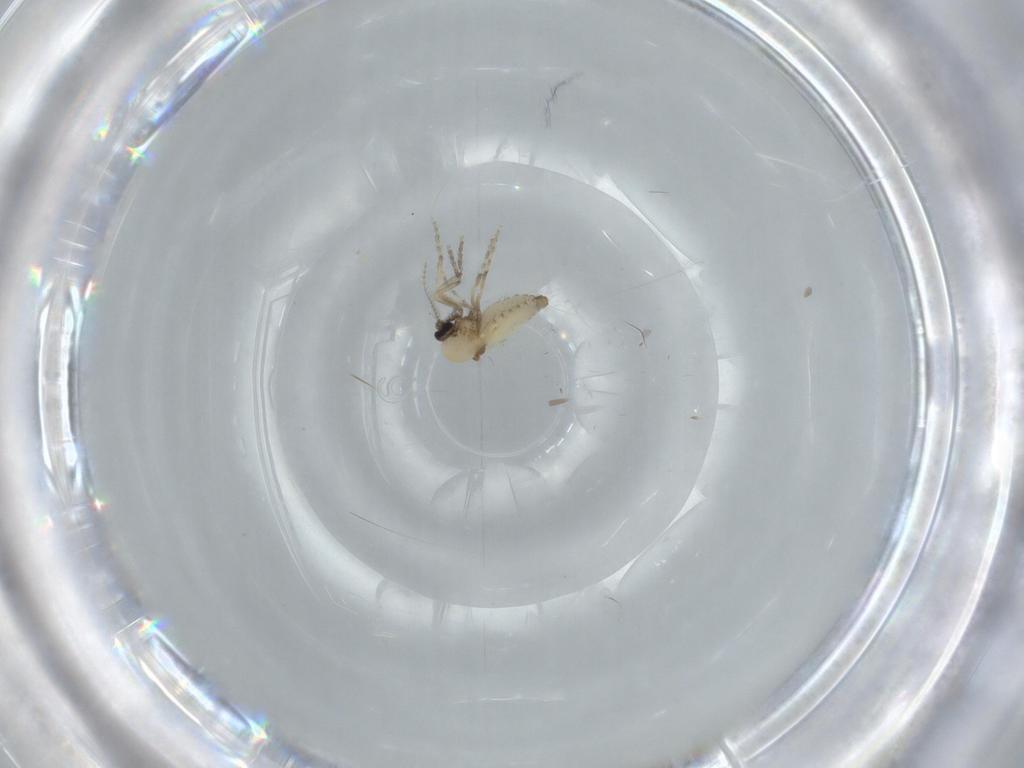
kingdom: Animalia
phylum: Arthropoda
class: Insecta
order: Diptera
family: Ceratopogonidae
